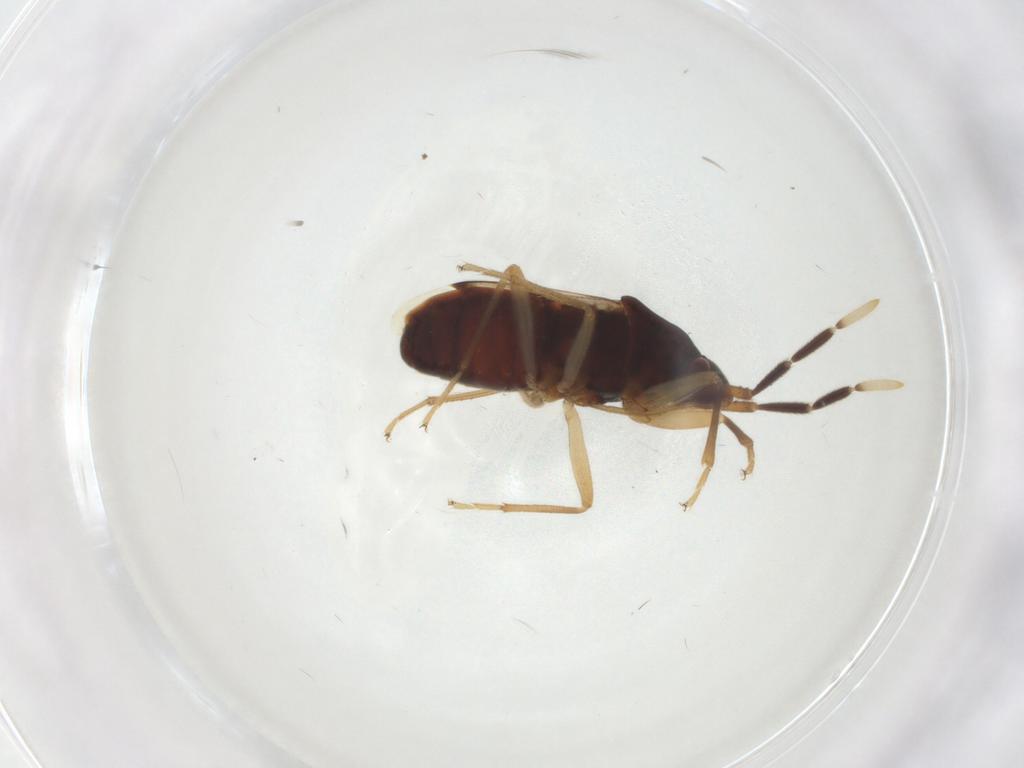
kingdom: Animalia
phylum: Arthropoda
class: Insecta
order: Hemiptera
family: Rhyparochromidae
